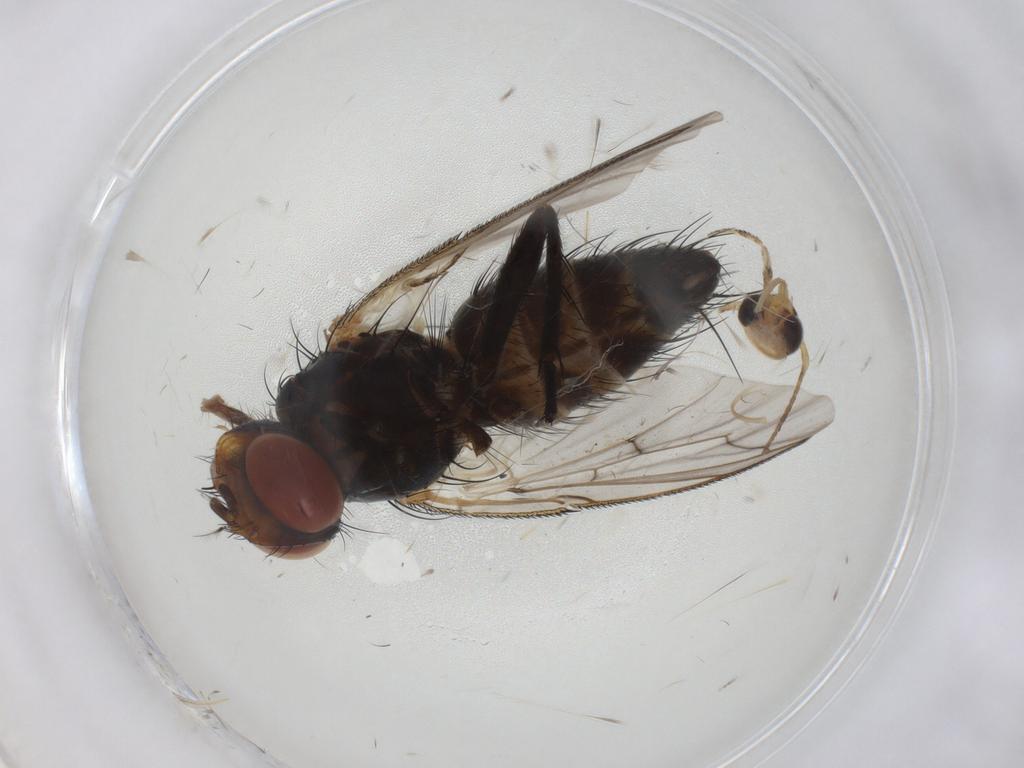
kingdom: Animalia
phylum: Arthropoda
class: Insecta
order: Diptera
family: Tachinidae
